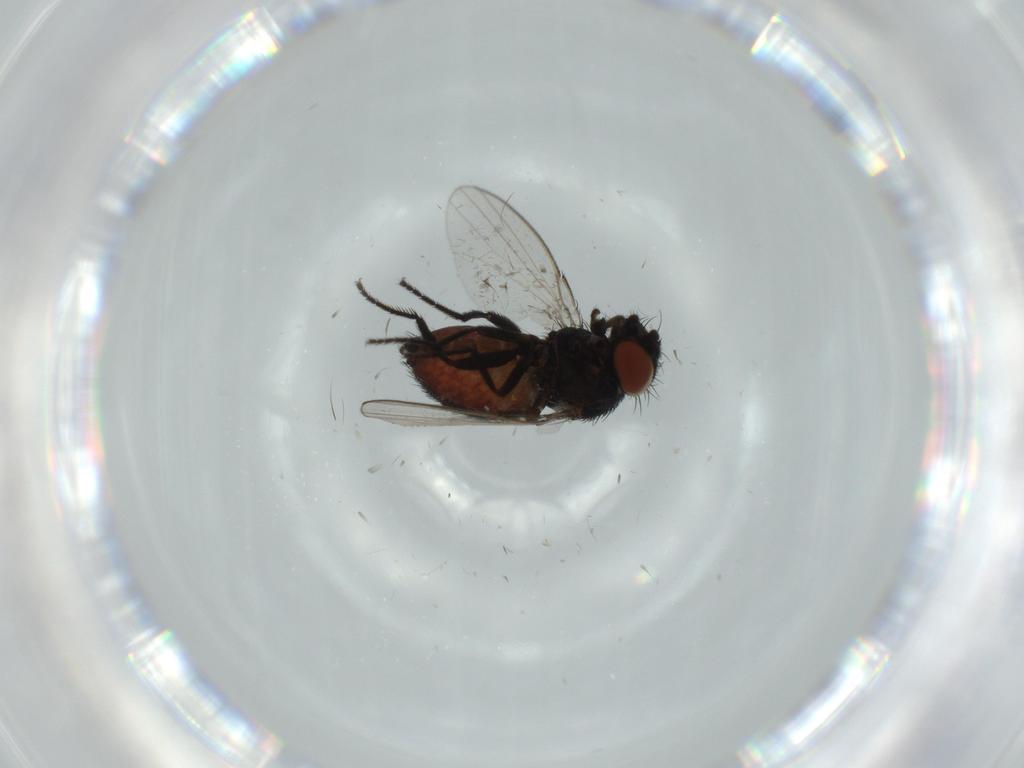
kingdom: Animalia
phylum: Arthropoda
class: Insecta
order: Diptera
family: Milichiidae
